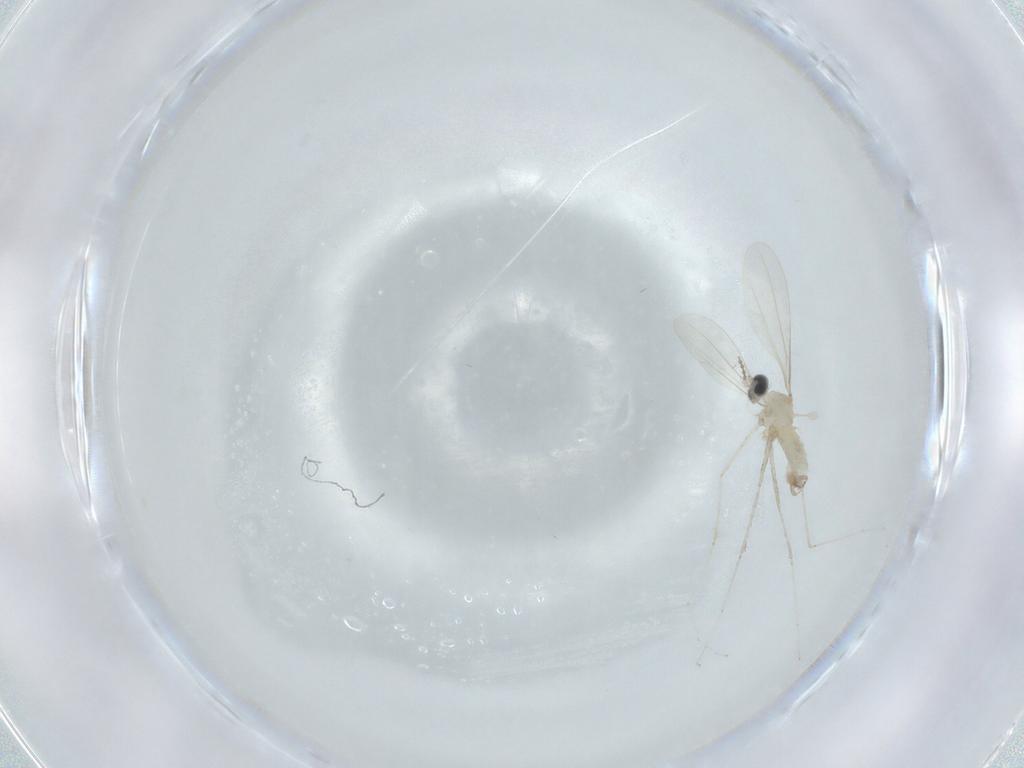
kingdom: Animalia
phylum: Arthropoda
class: Insecta
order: Diptera
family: Cecidomyiidae
